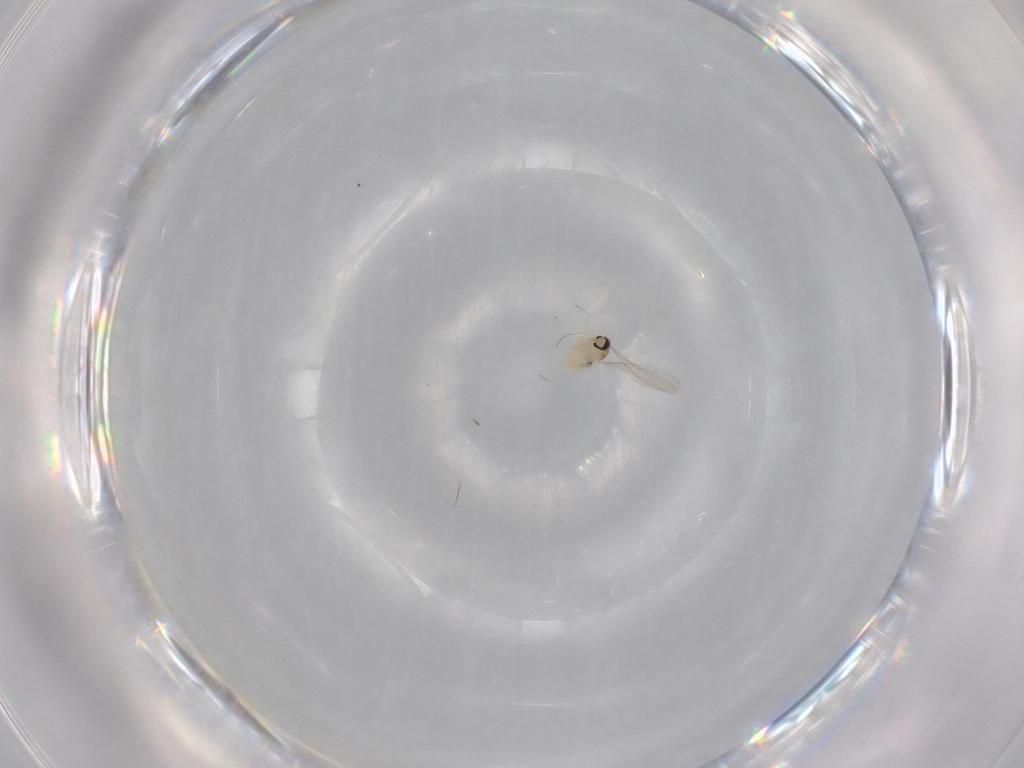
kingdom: Animalia
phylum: Arthropoda
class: Insecta
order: Diptera
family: Cecidomyiidae
